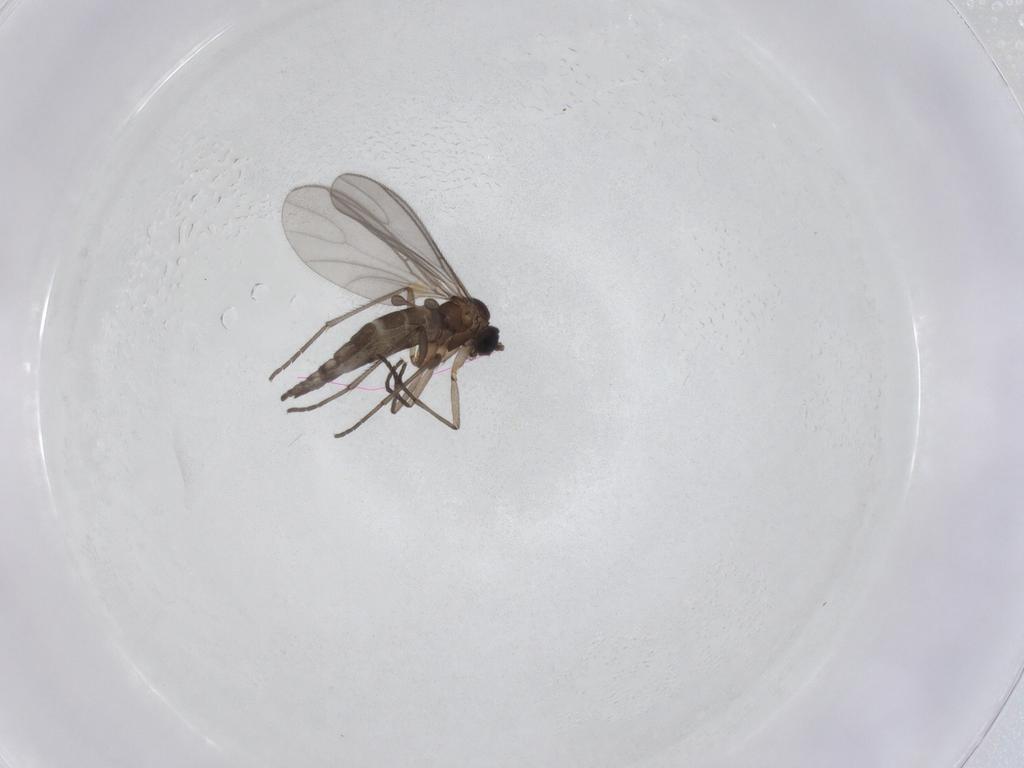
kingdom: Animalia
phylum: Arthropoda
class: Insecta
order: Diptera
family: Sciaridae
